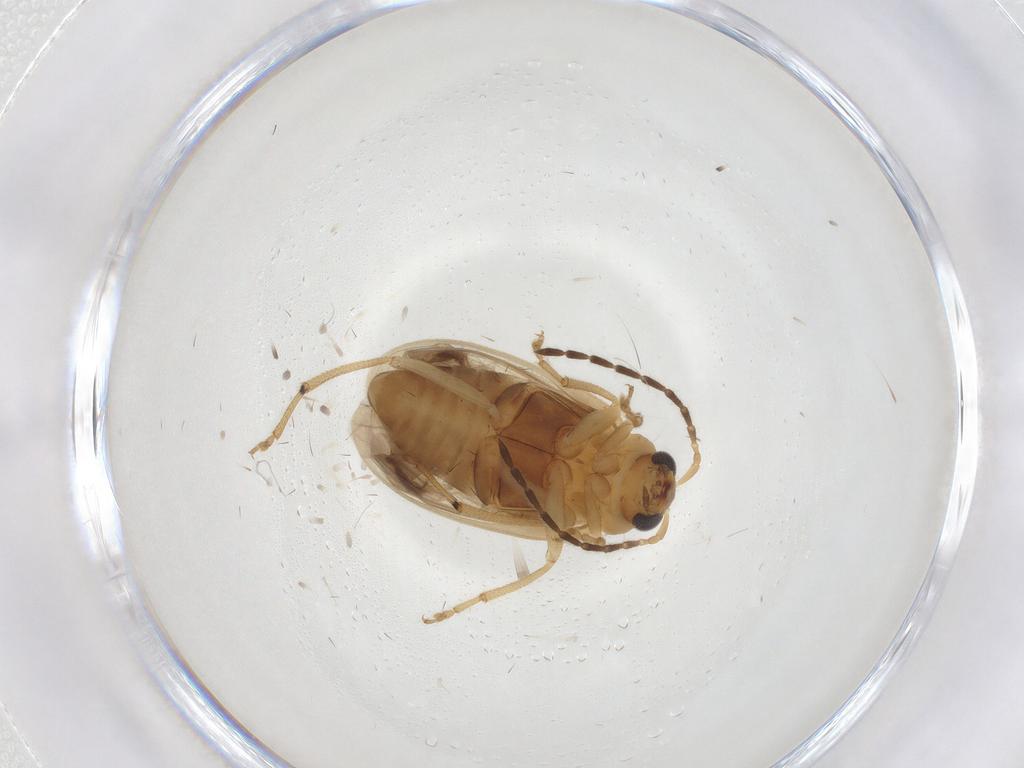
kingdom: Animalia
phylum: Arthropoda
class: Insecta
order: Coleoptera
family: Chrysomelidae
